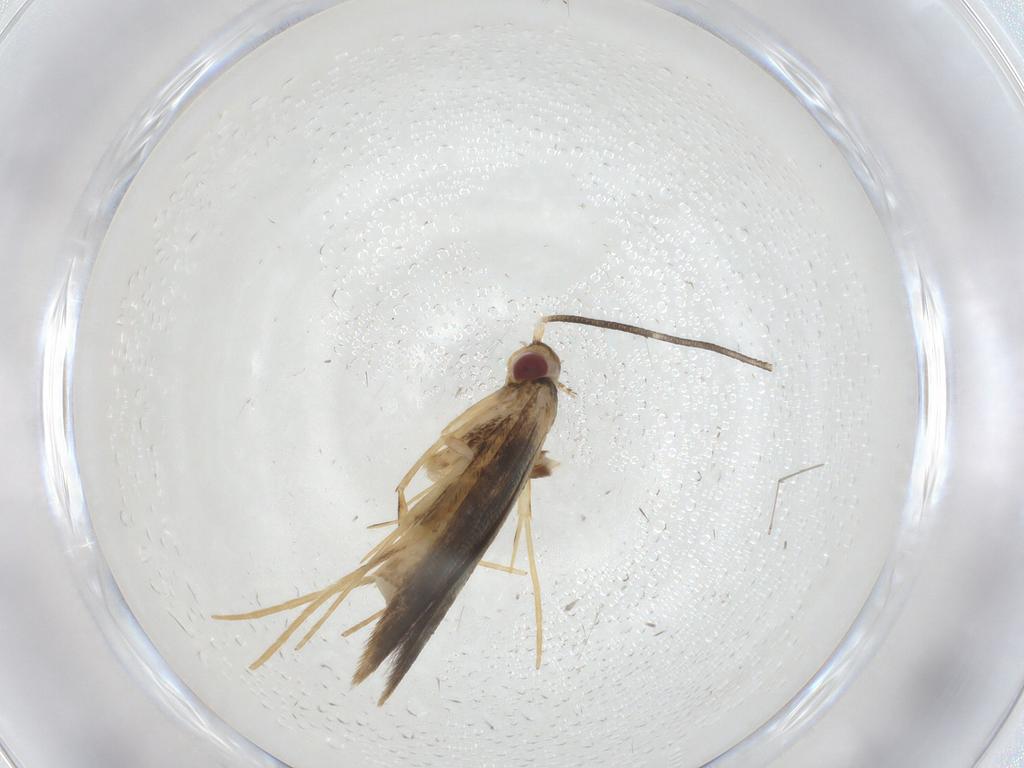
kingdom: Animalia
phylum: Arthropoda
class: Insecta
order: Lepidoptera
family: Gracillariidae
